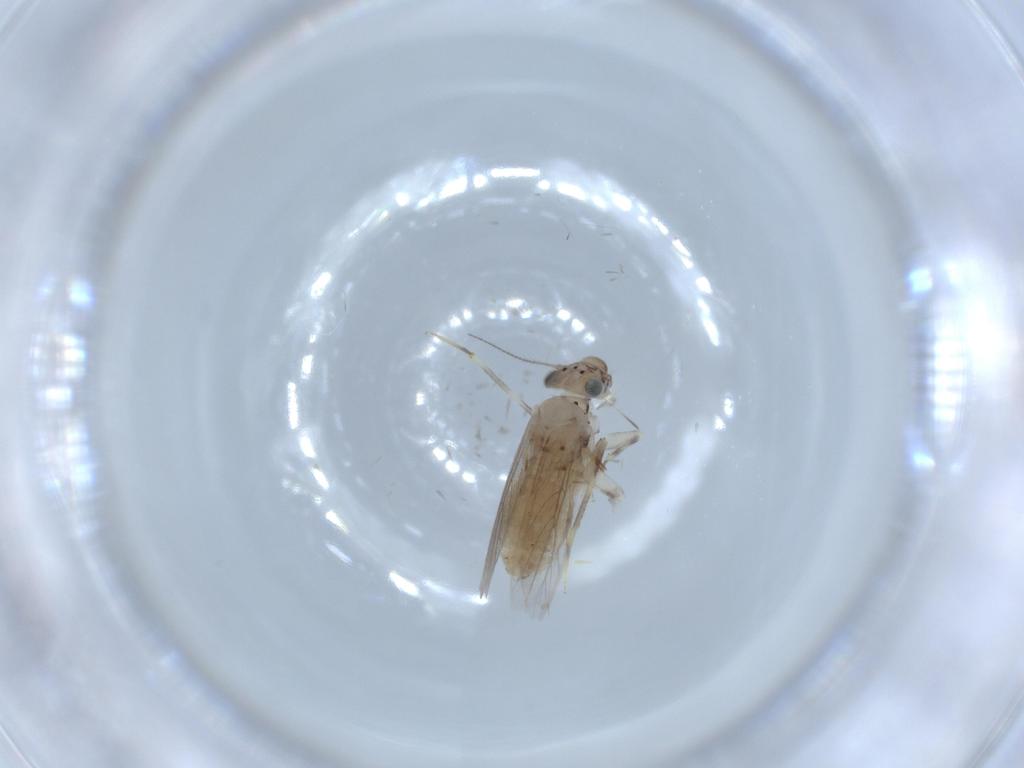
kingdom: Animalia
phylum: Arthropoda
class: Insecta
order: Psocodea
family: Lepidopsocidae
